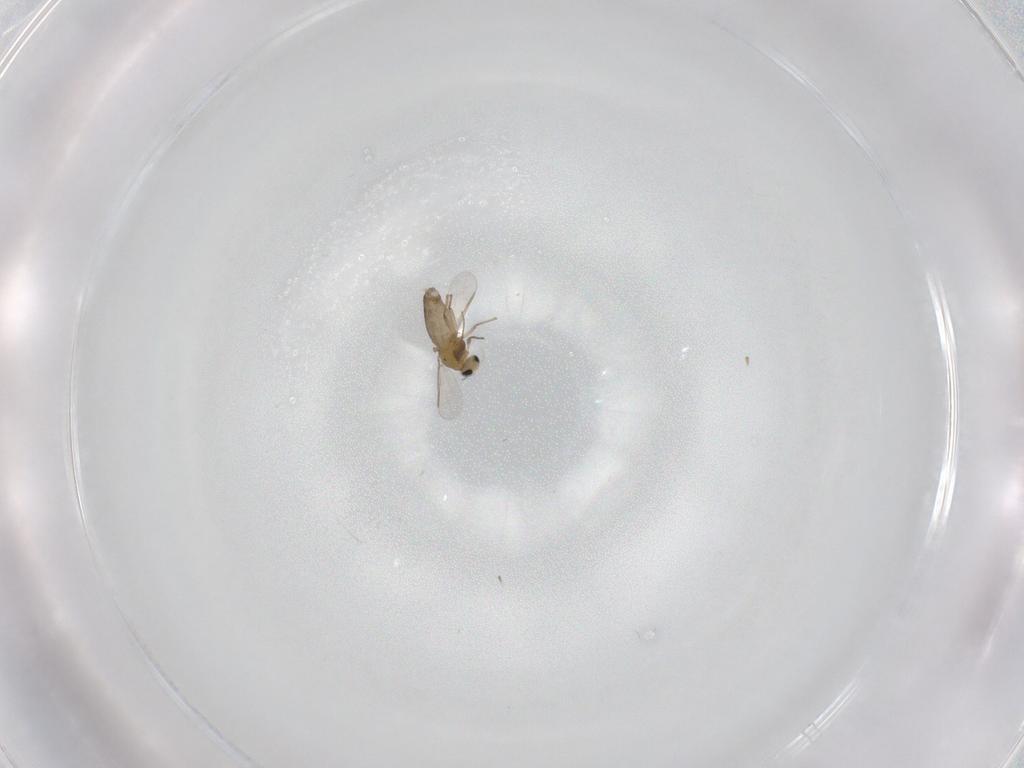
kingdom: Animalia
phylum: Arthropoda
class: Insecta
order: Diptera
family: Chironomidae
